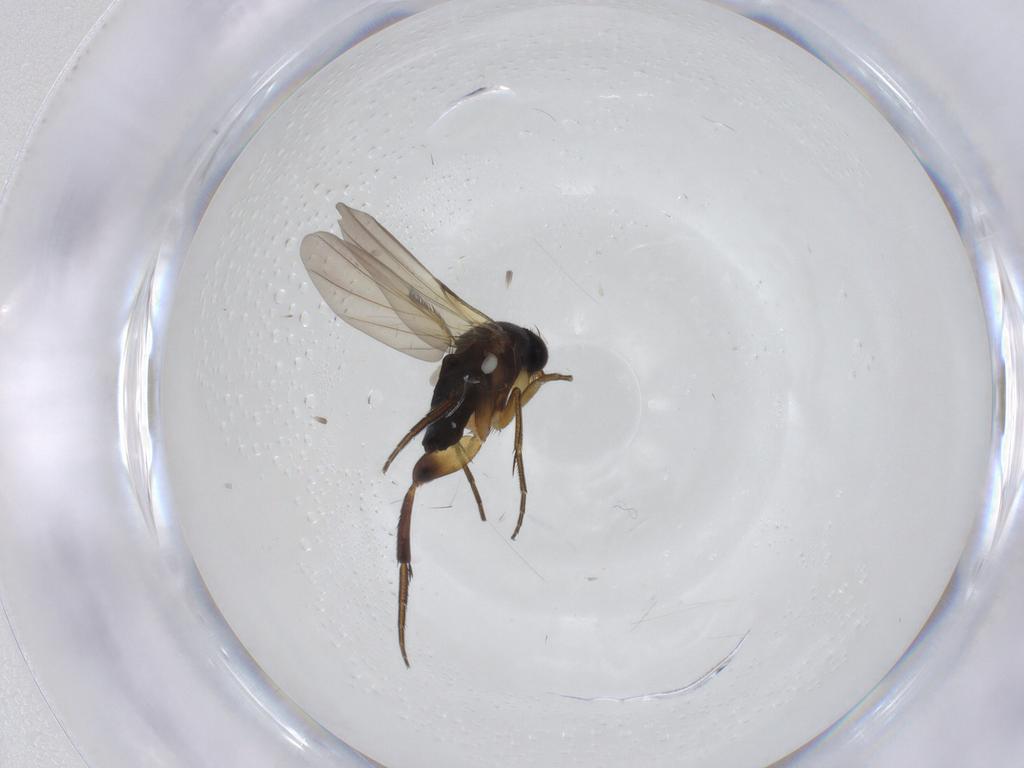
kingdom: Animalia
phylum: Arthropoda
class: Insecta
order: Diptera
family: Phoridae
